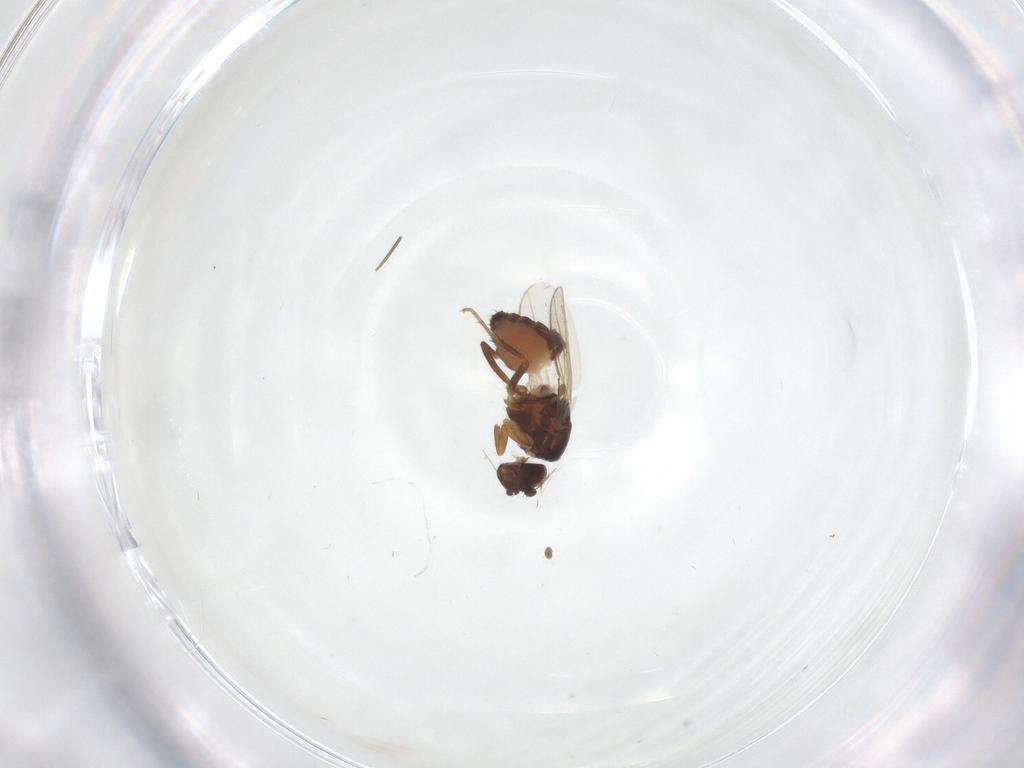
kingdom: Animalia
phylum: Arthropoda
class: Insecta
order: Diptera
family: Sphaeroceridae
